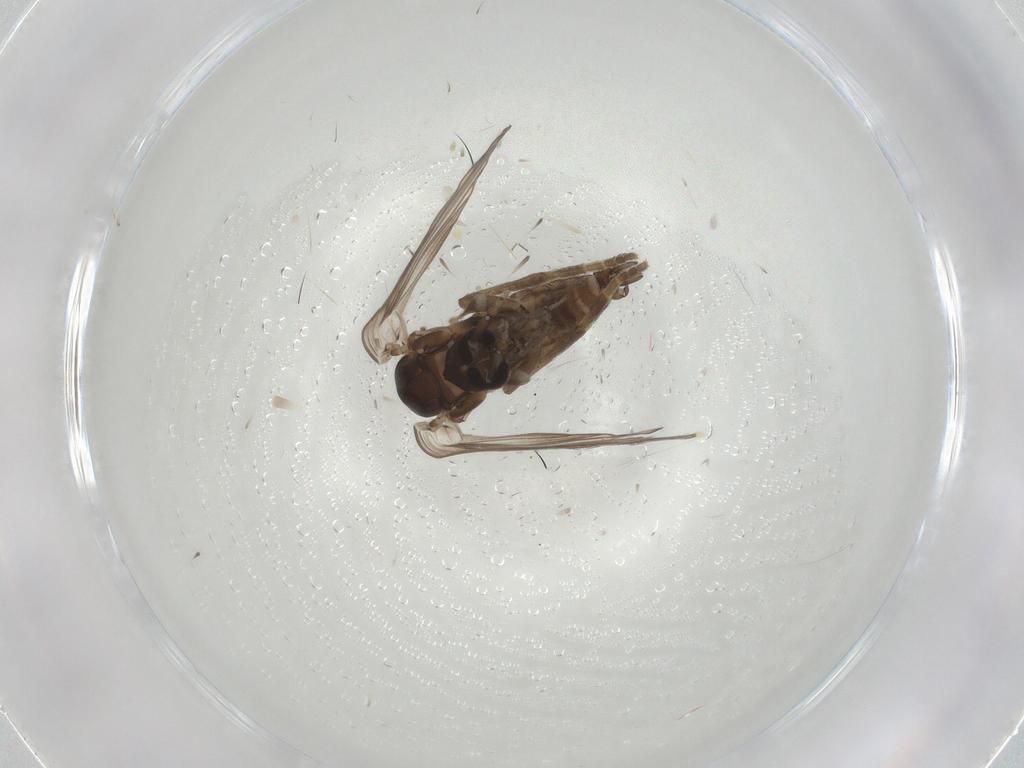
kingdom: Animalia
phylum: Arthropoda
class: Insecta
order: Diptera
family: Psychodidae
